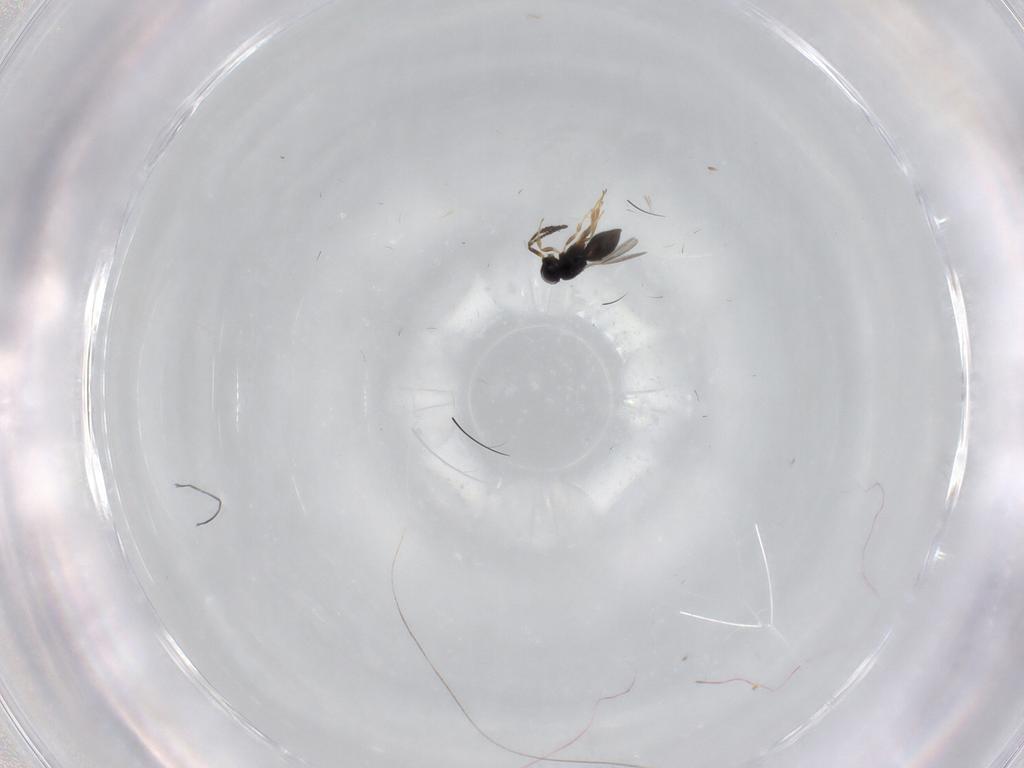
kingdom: Animalia
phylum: Arthropoda
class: Insecta
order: Hymenoptera
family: Scelionidae
